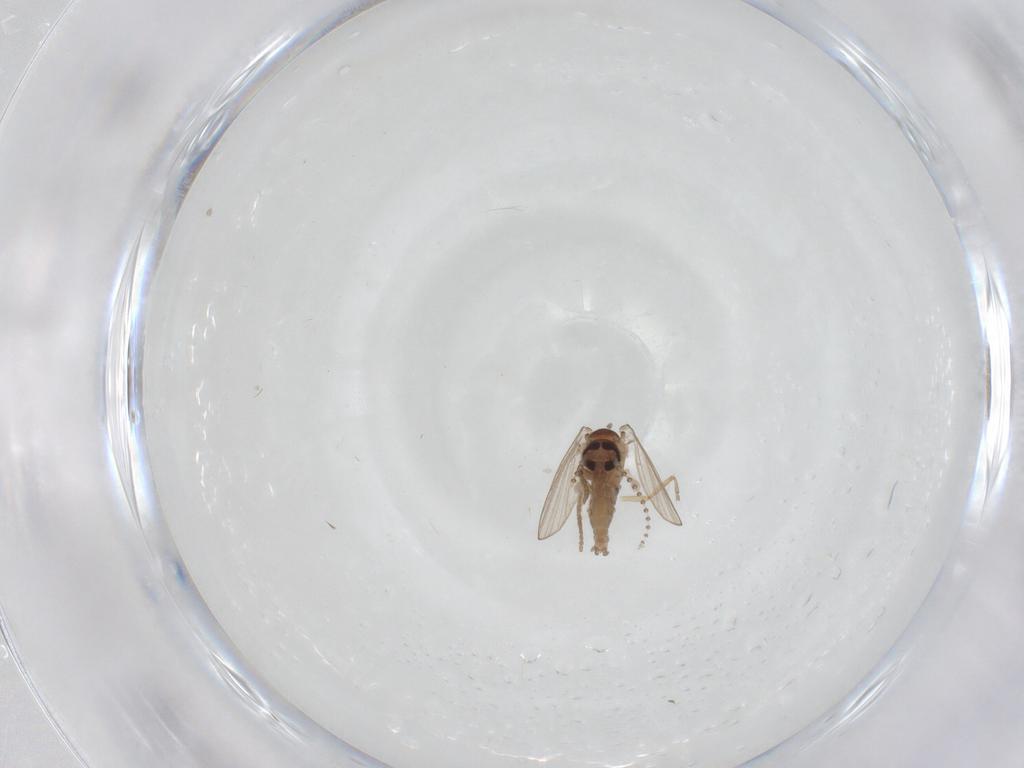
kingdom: Animalia
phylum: Arthropoda
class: Insecta
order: Diptera
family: Psychodidae
